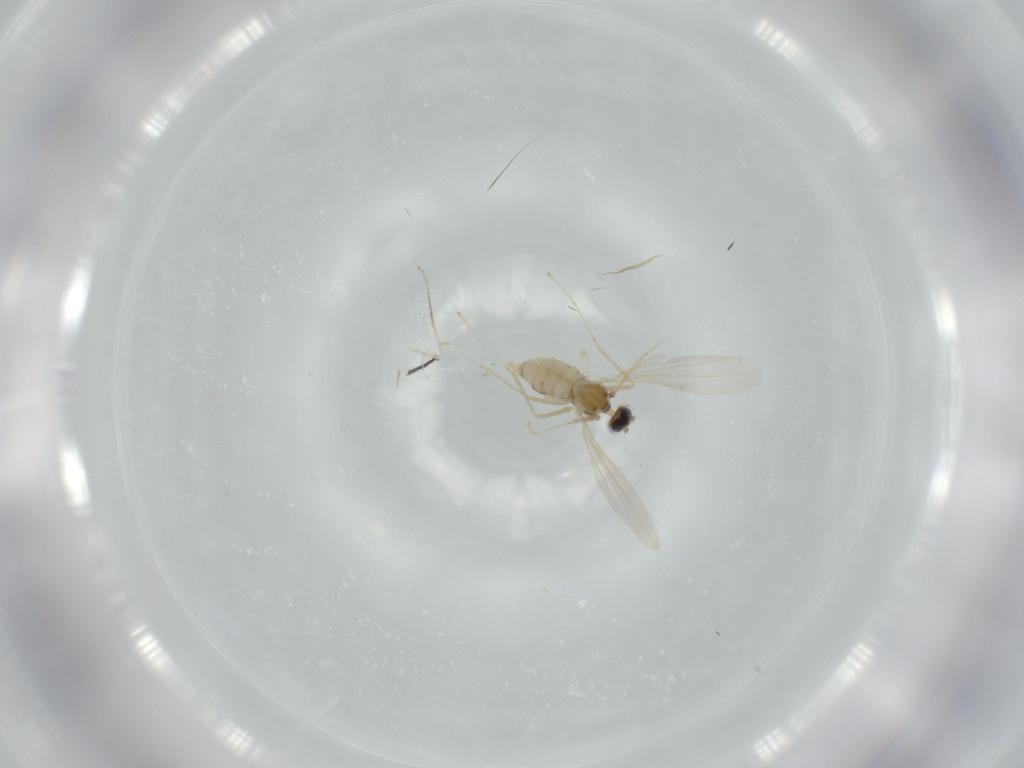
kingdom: Animalia
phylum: Arthropoda
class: Insecta
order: Diptera
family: Cecidomyiidae
